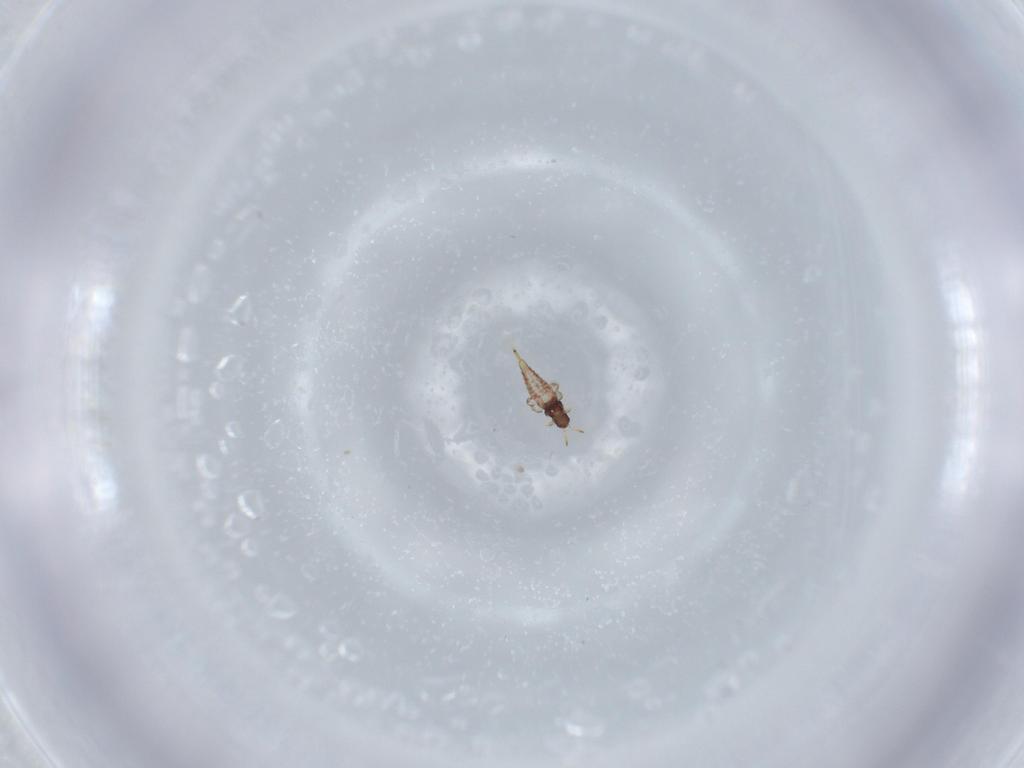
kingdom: Animalia
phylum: Arthropoda
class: Insecta
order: Thysanoptera
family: Phlaeothripidae
